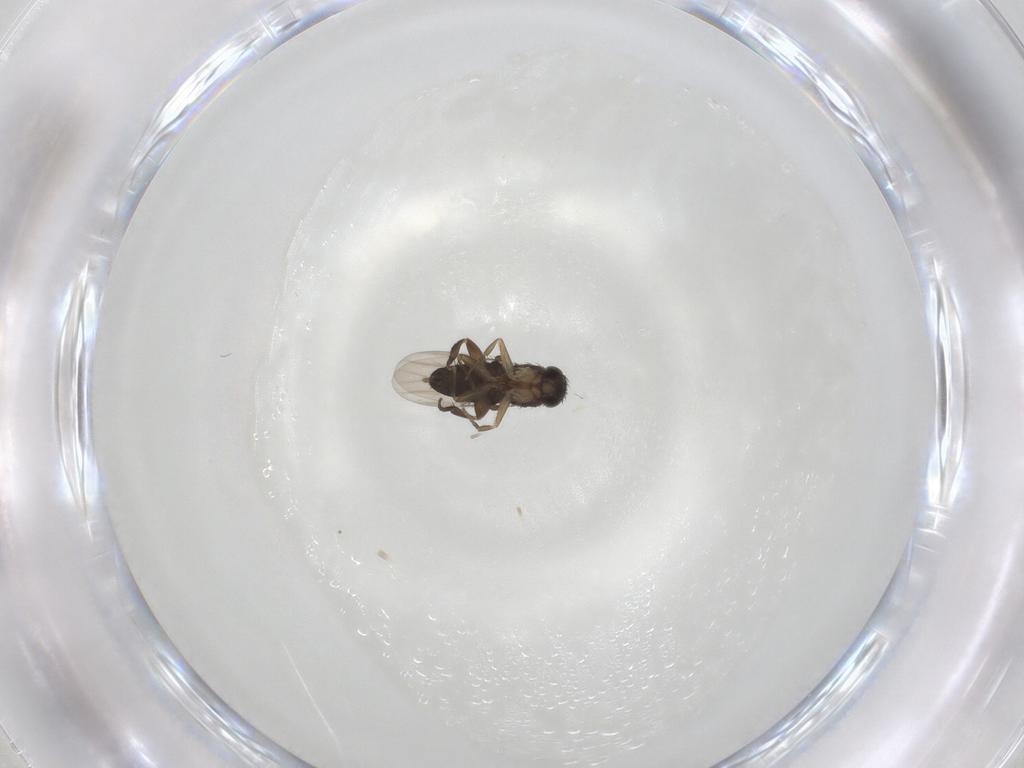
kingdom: Animalia
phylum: Arthropoda
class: Insecta
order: Diptera
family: Phoridae
